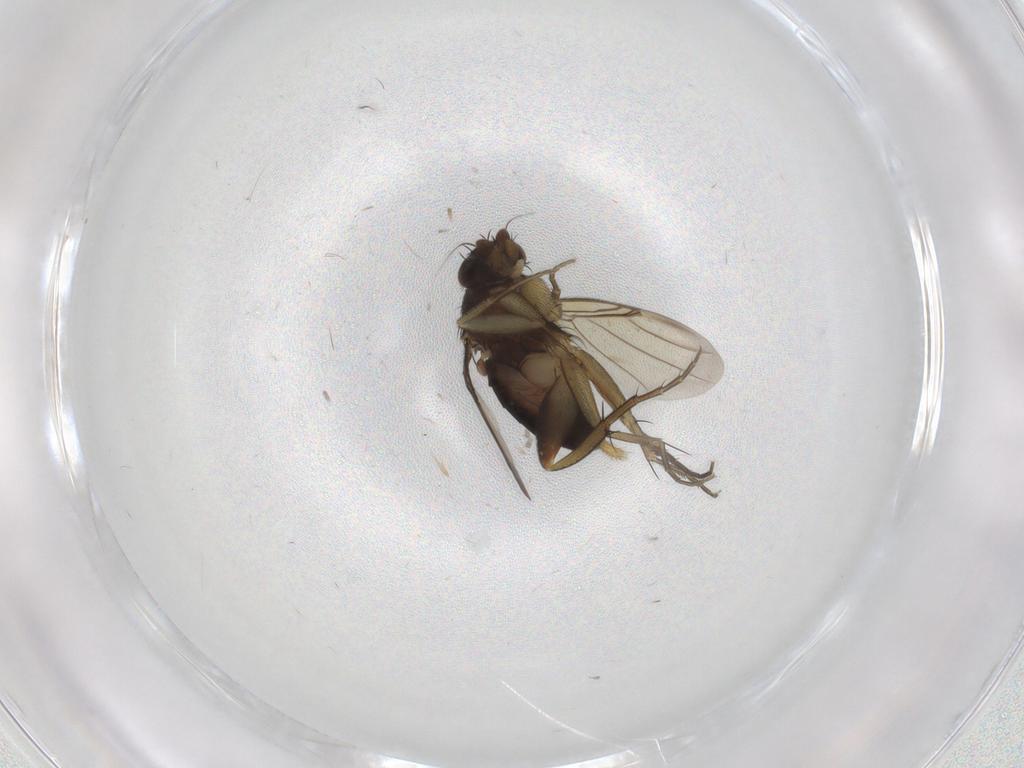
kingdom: Animalia
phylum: Arthropoda
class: Insecta
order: Diptera
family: Phoridae
